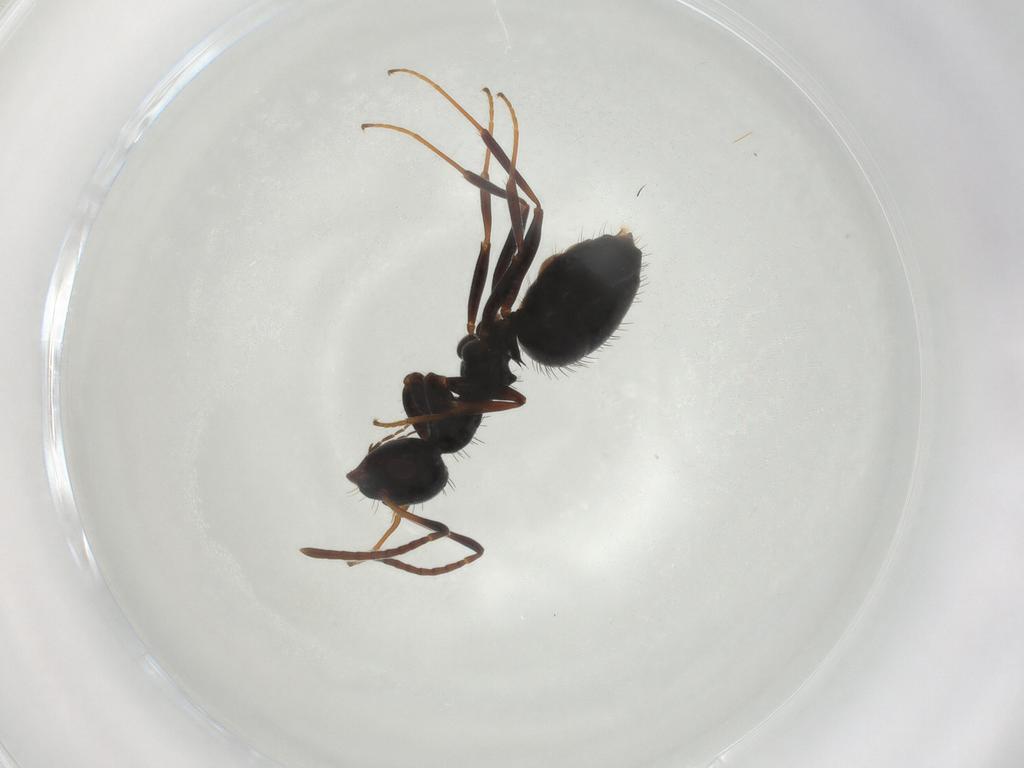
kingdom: Animalia
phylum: Arthropoda
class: Insecta
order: Hymenoptera
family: Formicidae
